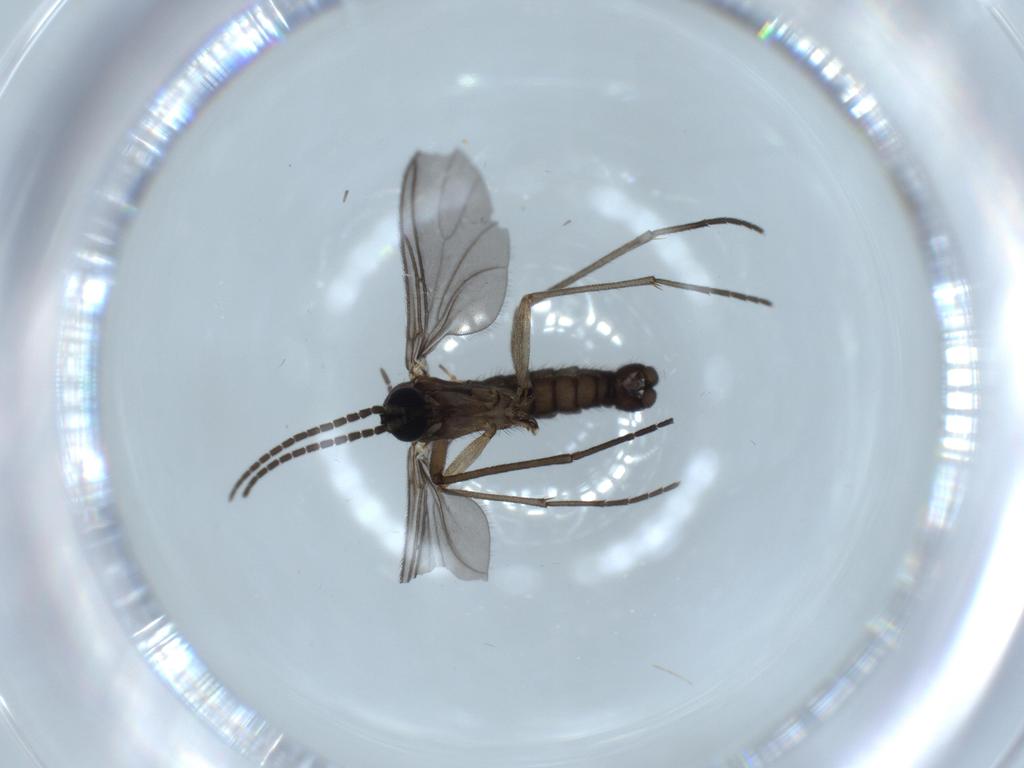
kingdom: Animalia
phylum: Arthropoda
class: Insecta
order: Diptera
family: Sciaridae
